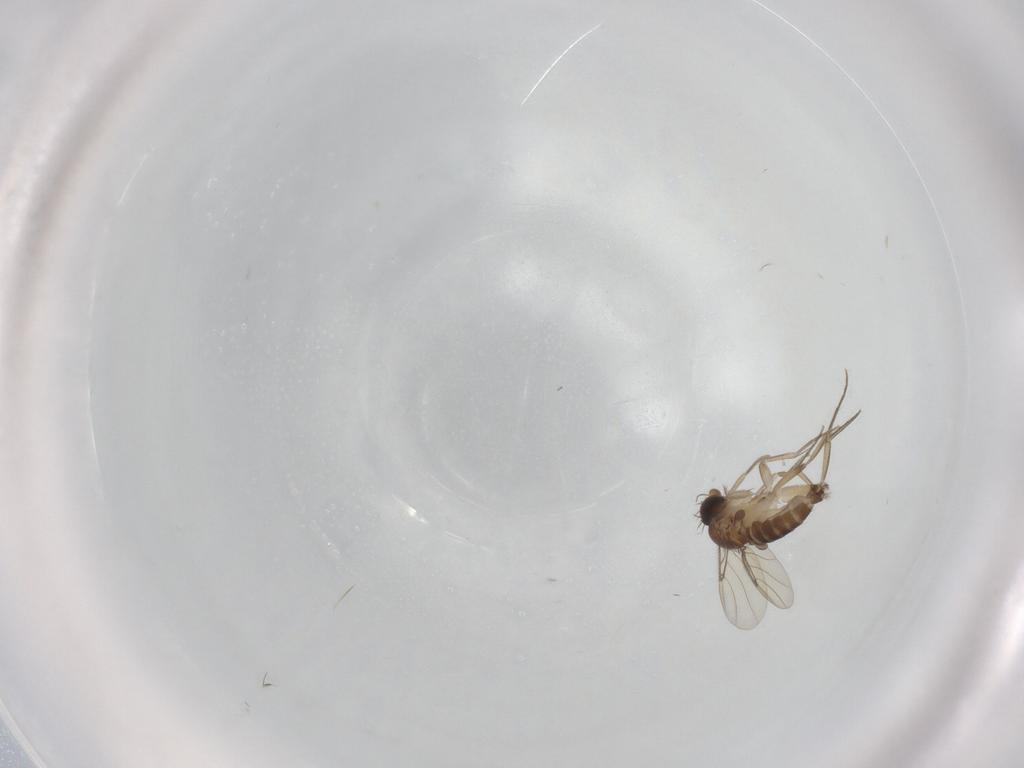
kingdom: Animalia
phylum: Arthropoda
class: Insecta
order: Diptera
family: Phoridae
